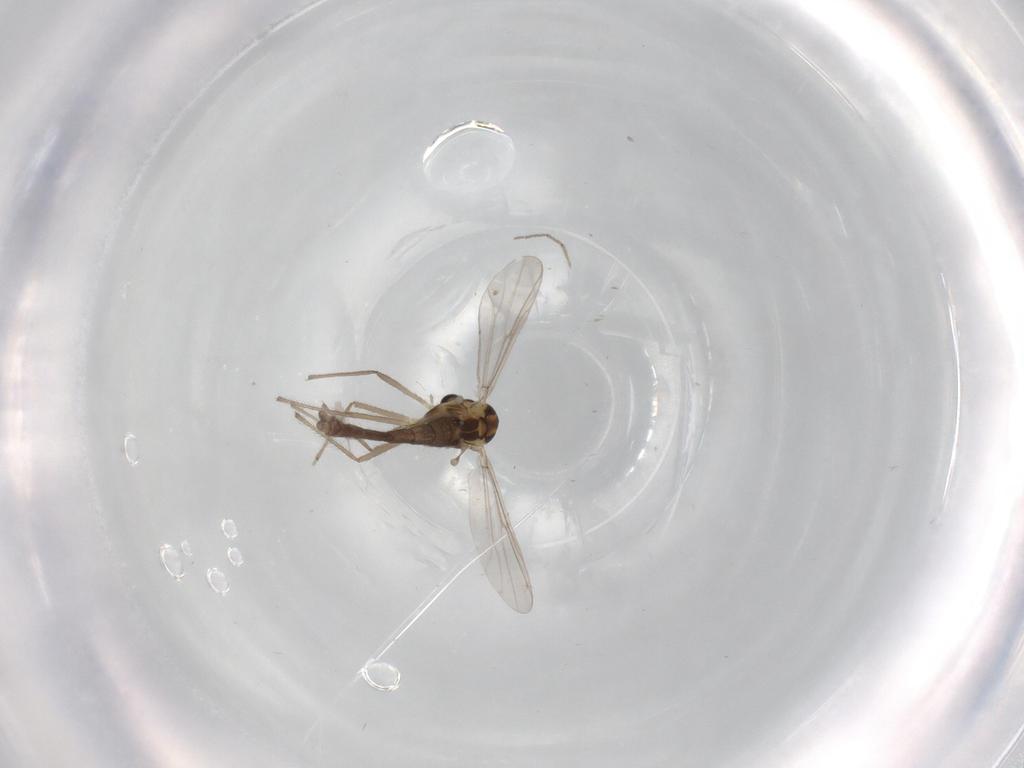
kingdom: Animalia
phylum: Arthropoda
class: Insecta
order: Diptera
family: Chironomidae
